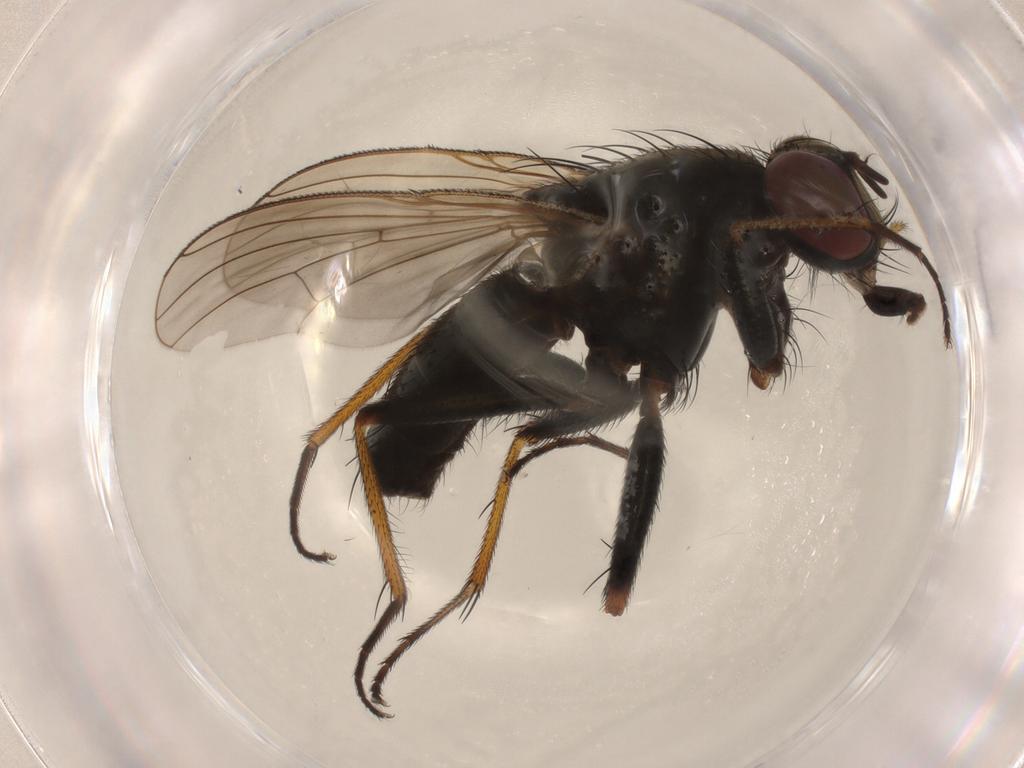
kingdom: Animalia
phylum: Arthropoda
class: Insecta
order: Diptera
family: Muscidae
